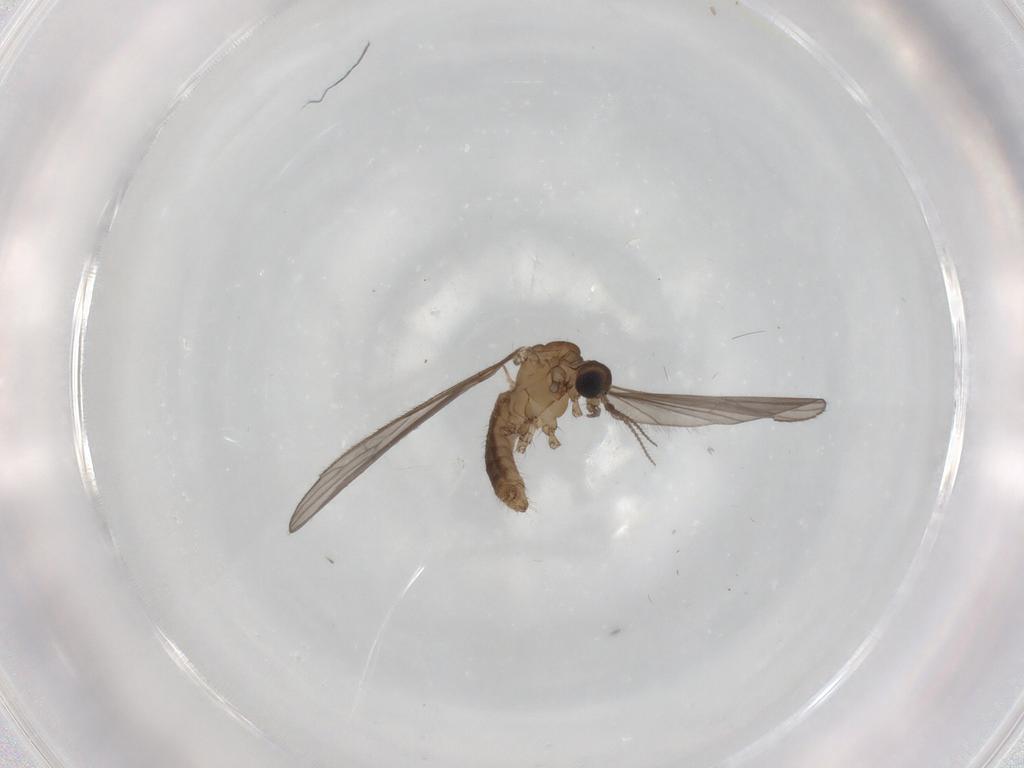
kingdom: Animalia
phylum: Arthropoda
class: Insecta
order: Diptera
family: Limoniidae
